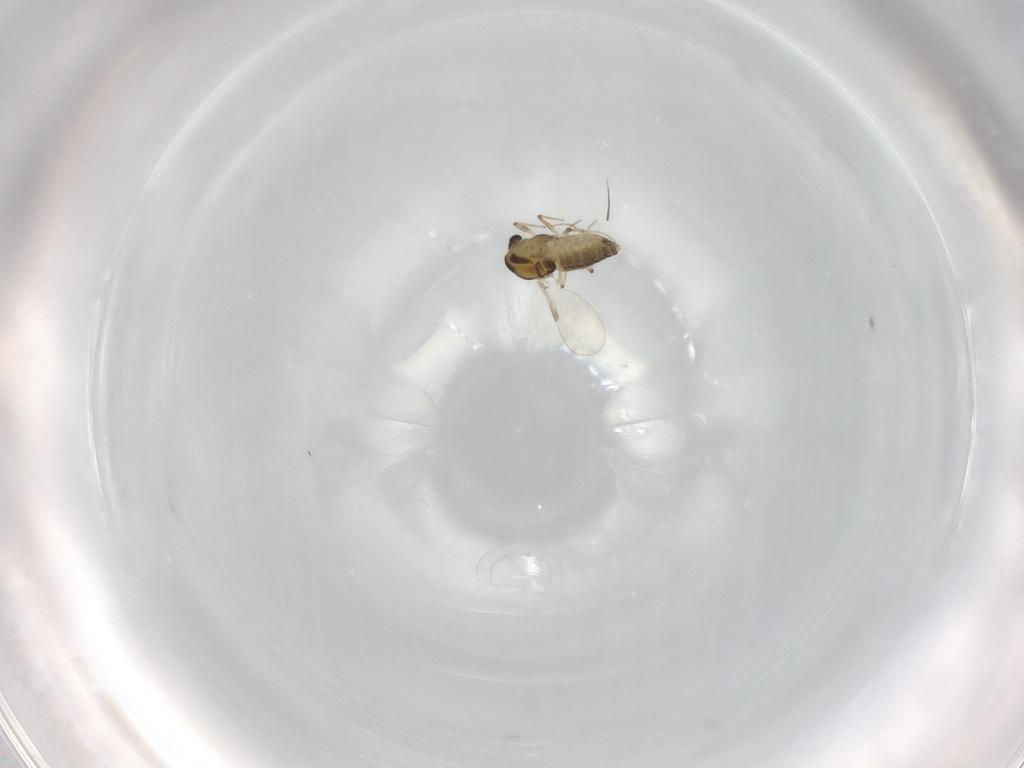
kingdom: Animalia
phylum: Arthropoda
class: Insecta
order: Diptera
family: Chironomidae
